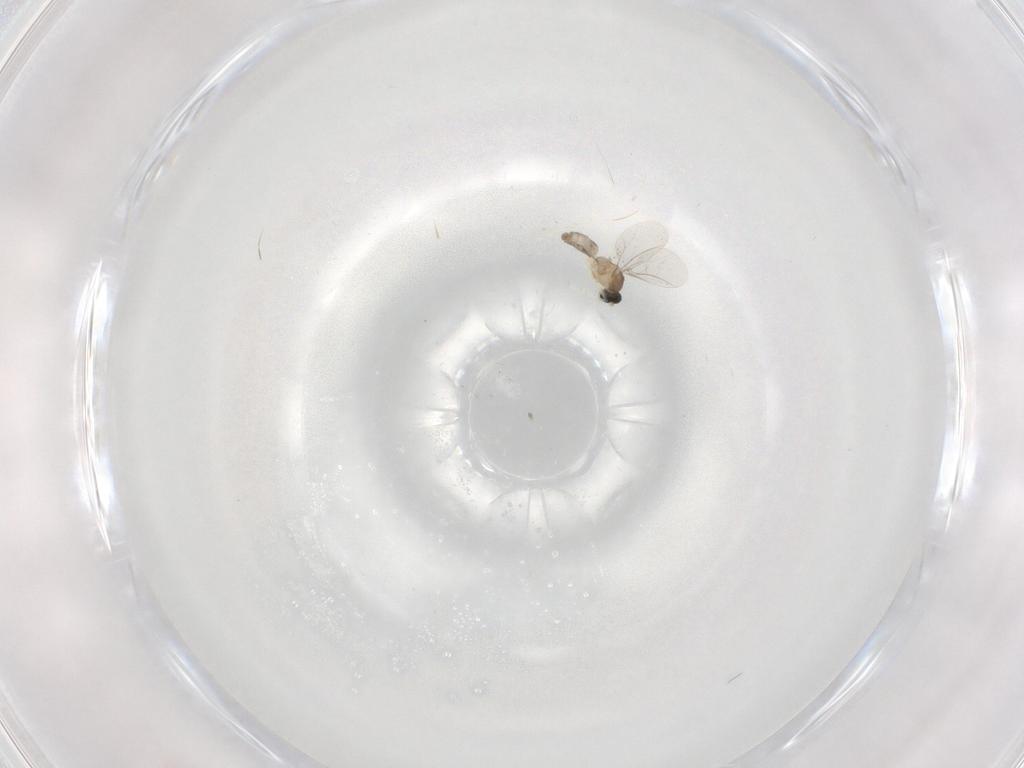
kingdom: Animalia
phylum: Arthropoda
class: Insecta
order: Diptera
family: Cecidomyiidae
